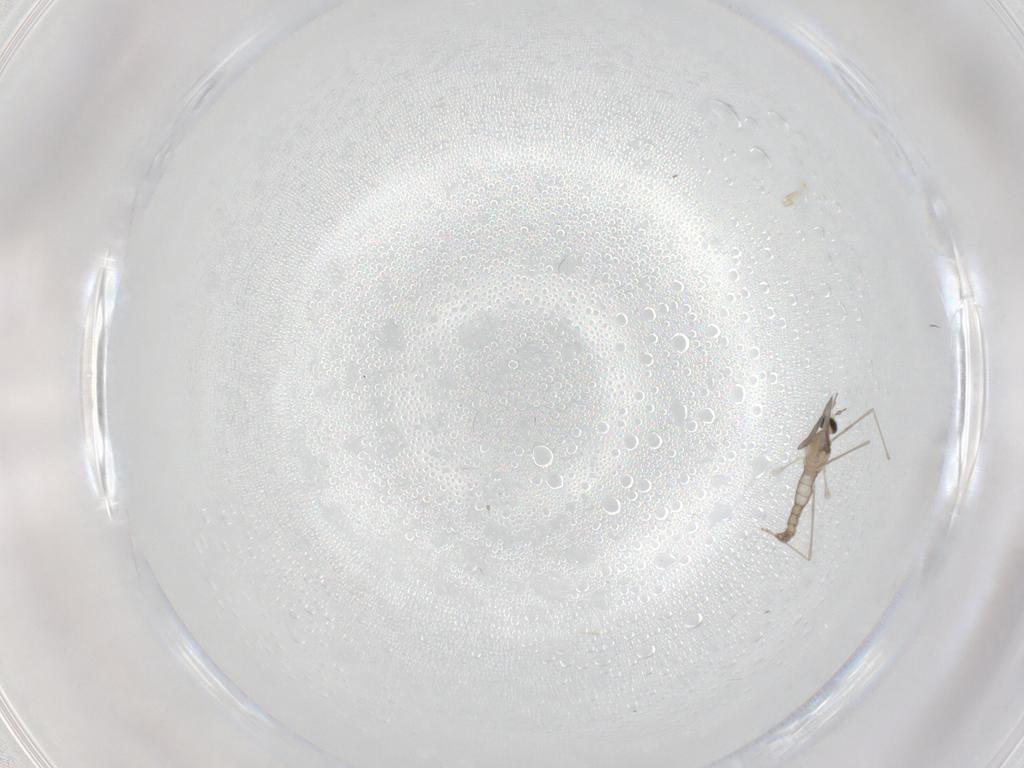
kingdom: Animalia
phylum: Arthropoda
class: Insecta
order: Diptera
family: Cecidomyiidae
